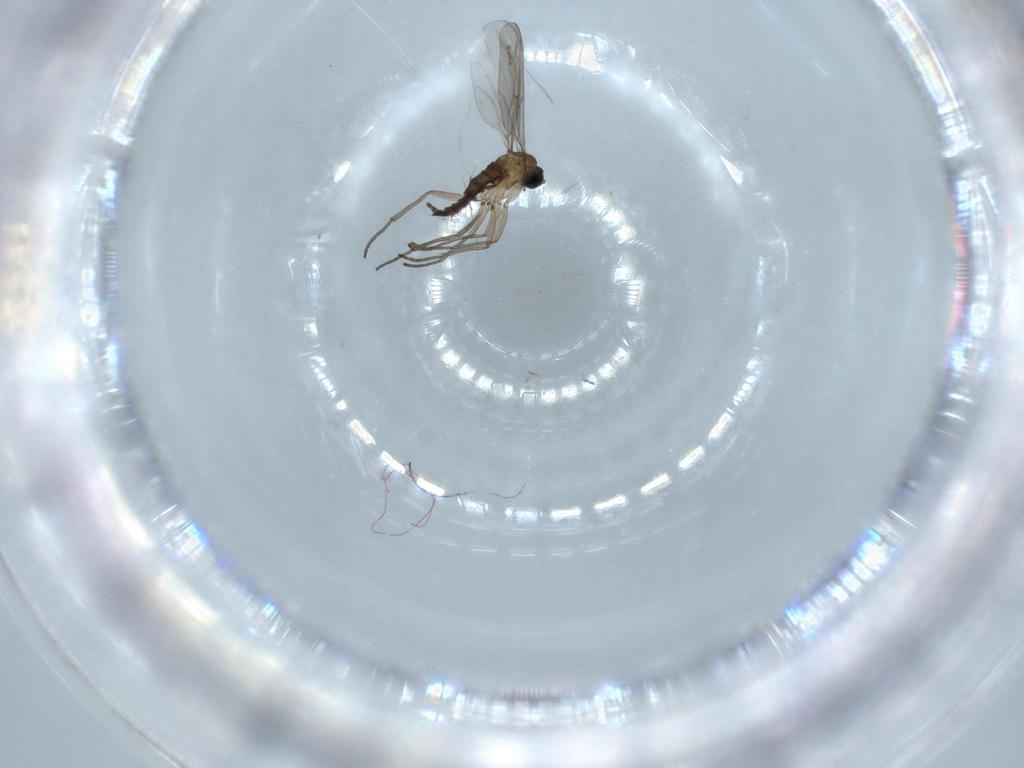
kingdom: Animalia
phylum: Arthropoda
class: Insecta
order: Diptera
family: Sciaridae
